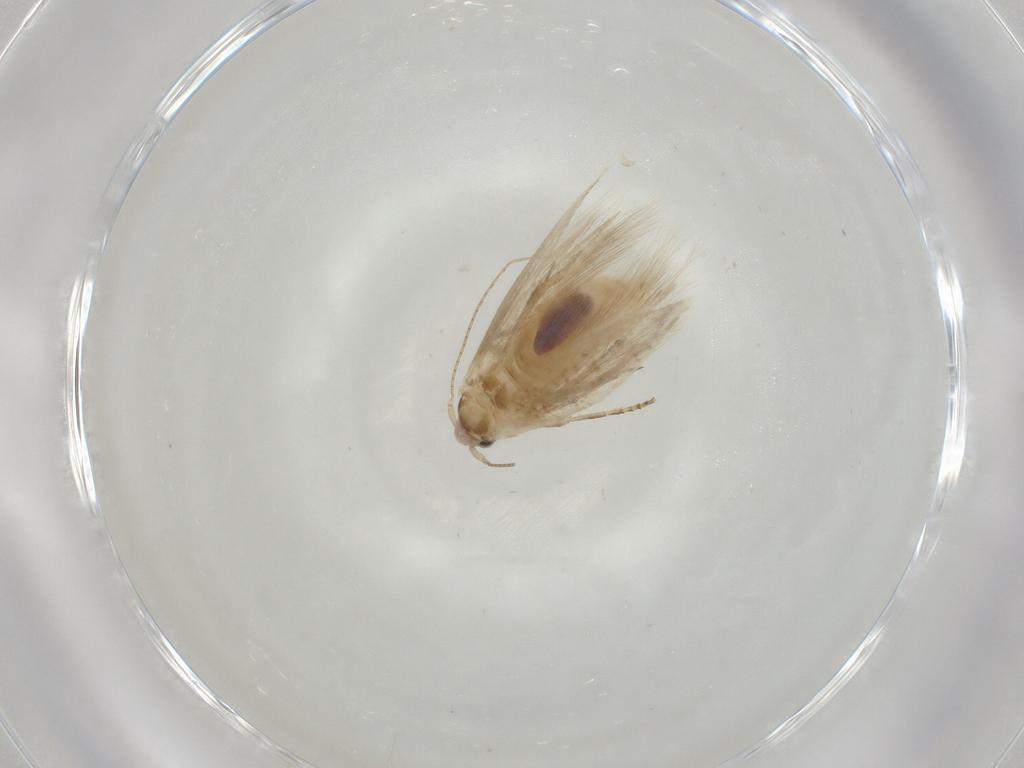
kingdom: Animalia
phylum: Arthropoda
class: Insecta
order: Lepidoptera
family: Bucculatricidae
